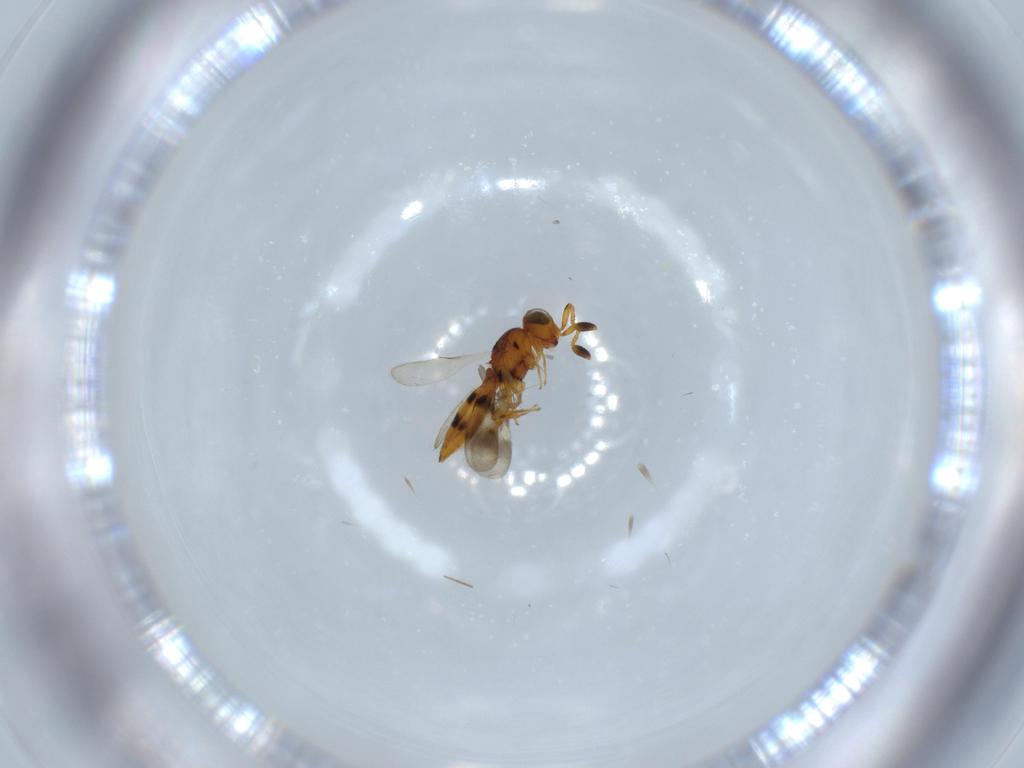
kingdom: Animalia
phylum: Arthropoda
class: Insecta
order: Hymenoptera
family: Scelionidae
